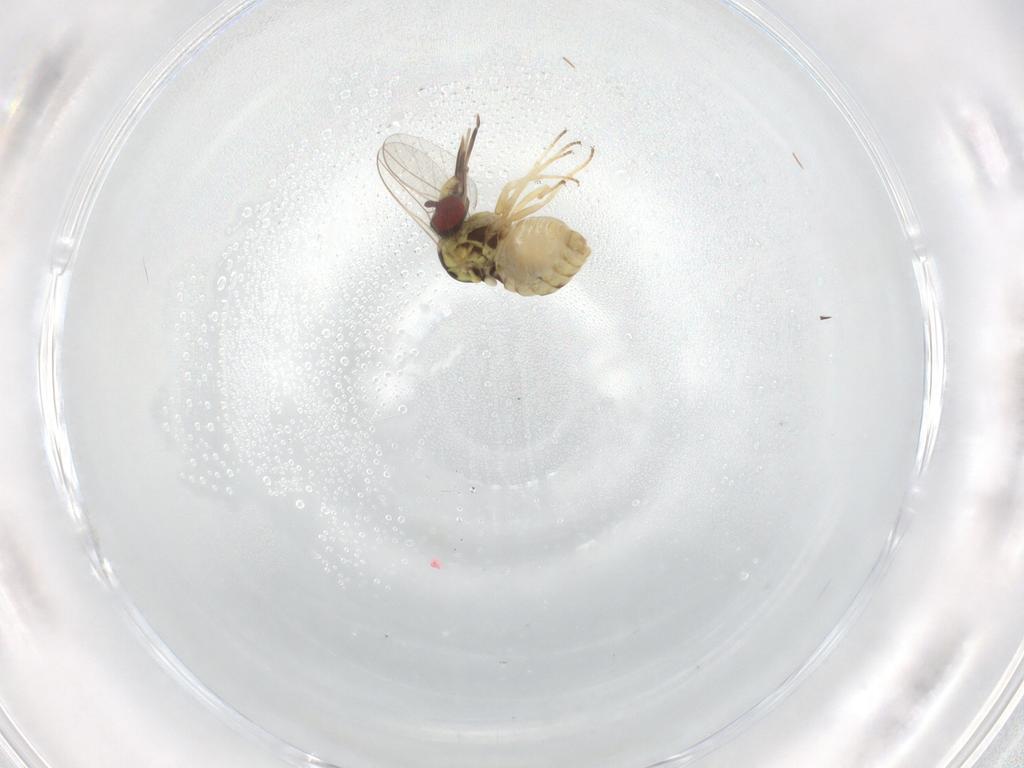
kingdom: Animalia
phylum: Arthropoda
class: Insecta
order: Diptera
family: Bombyliidae
